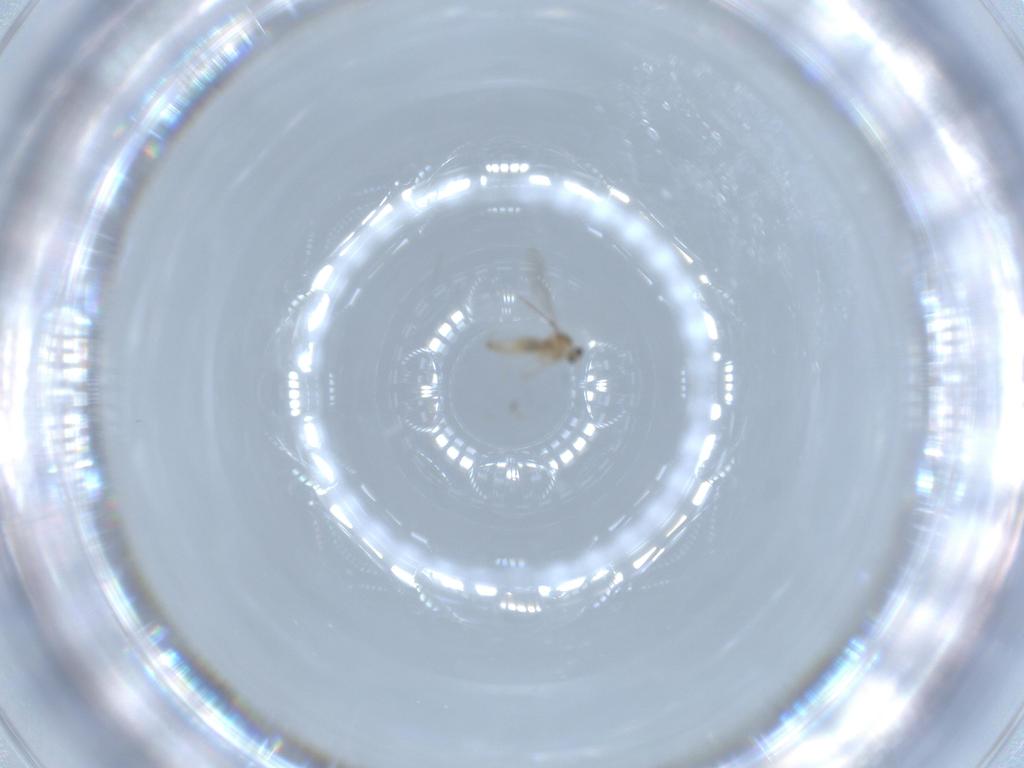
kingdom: Animalia
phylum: Arthropoda
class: Insecta
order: Diptera
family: Cecidomyiidae
